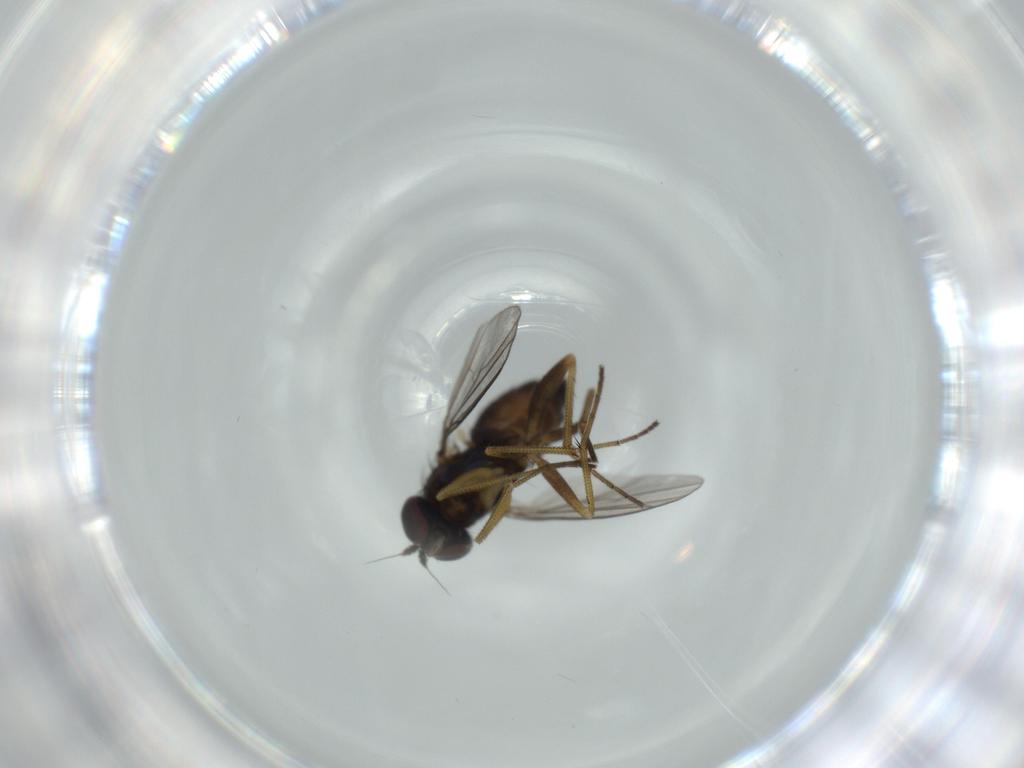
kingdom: Animalia
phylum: Arthropoda
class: Insecta
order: Diptera
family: Dolichopodidae
